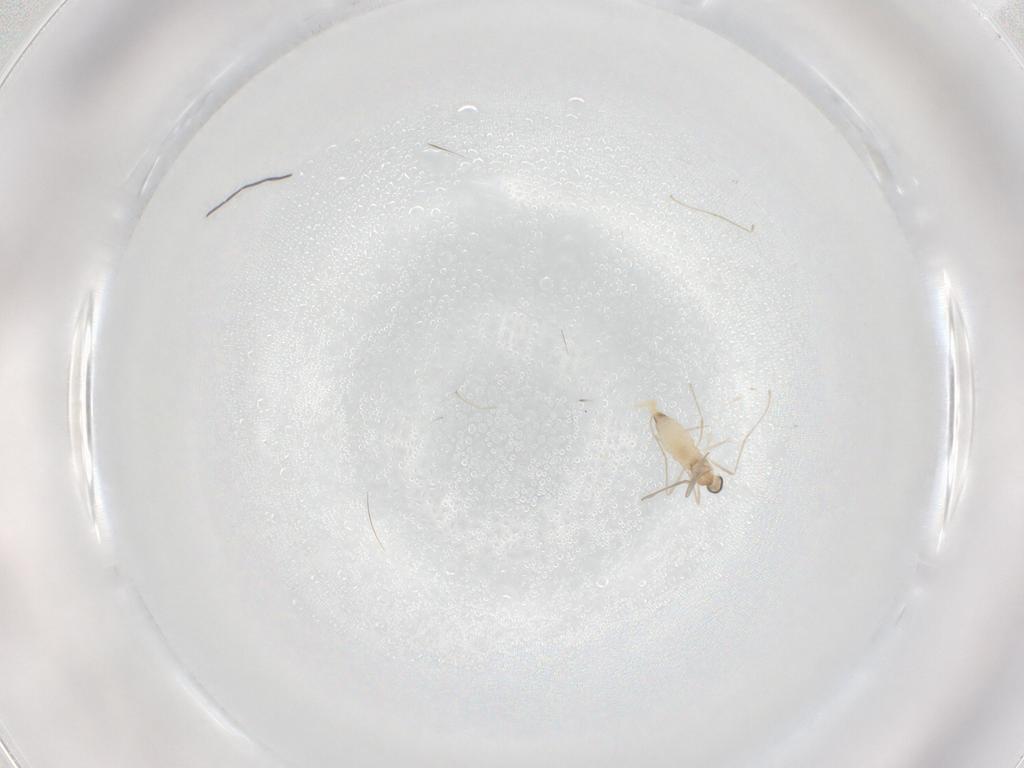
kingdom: Animalia
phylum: Arthropoda
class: Insecta
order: Diptera
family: Cecidomyiidae
